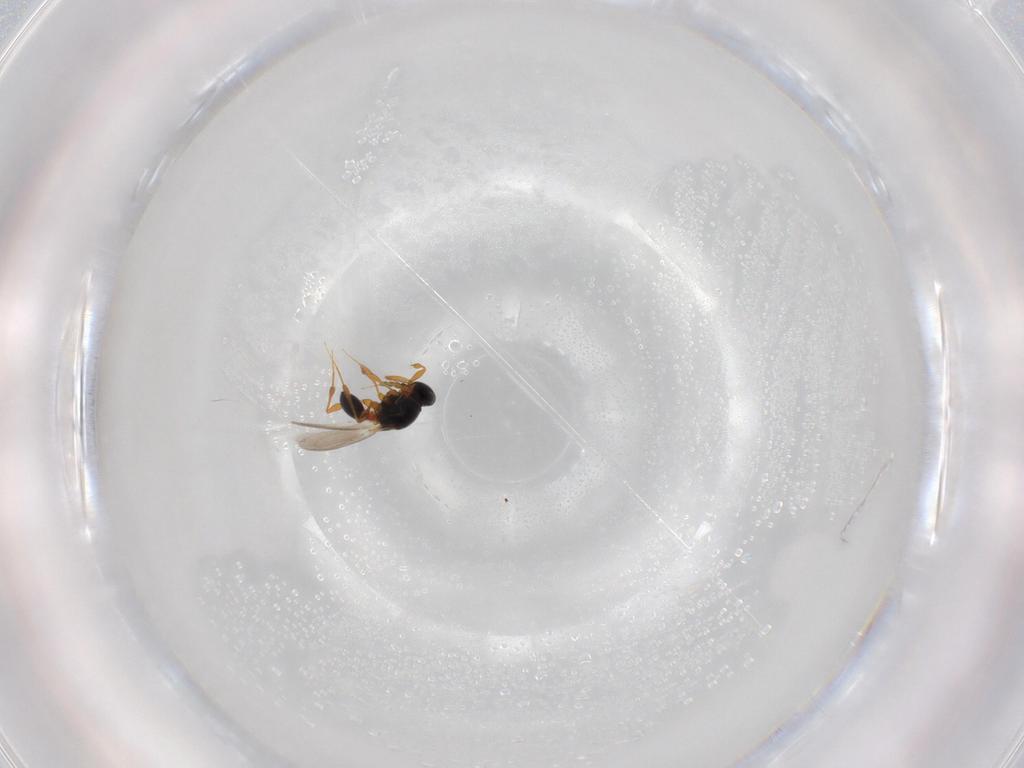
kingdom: Animalia
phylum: Arthropoda
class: Insecta
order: Hymenoptera
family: Platygastridae
